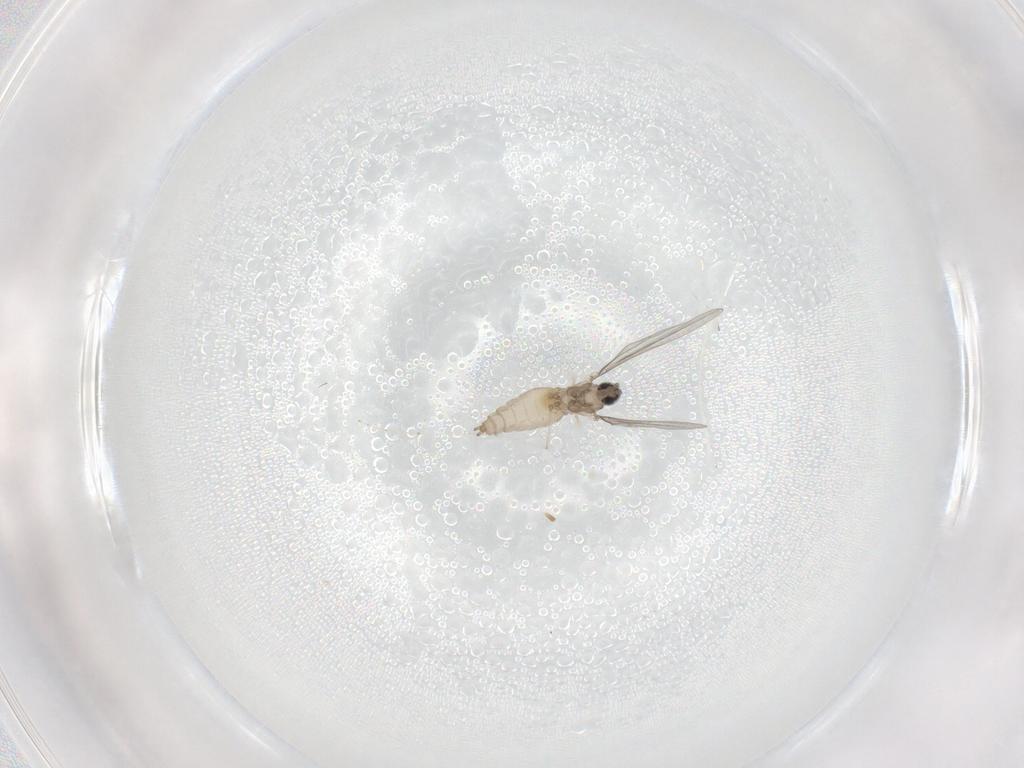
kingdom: Animalia
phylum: Arthropoda
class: Insecta
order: Diptera
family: Cecidomyiidae
